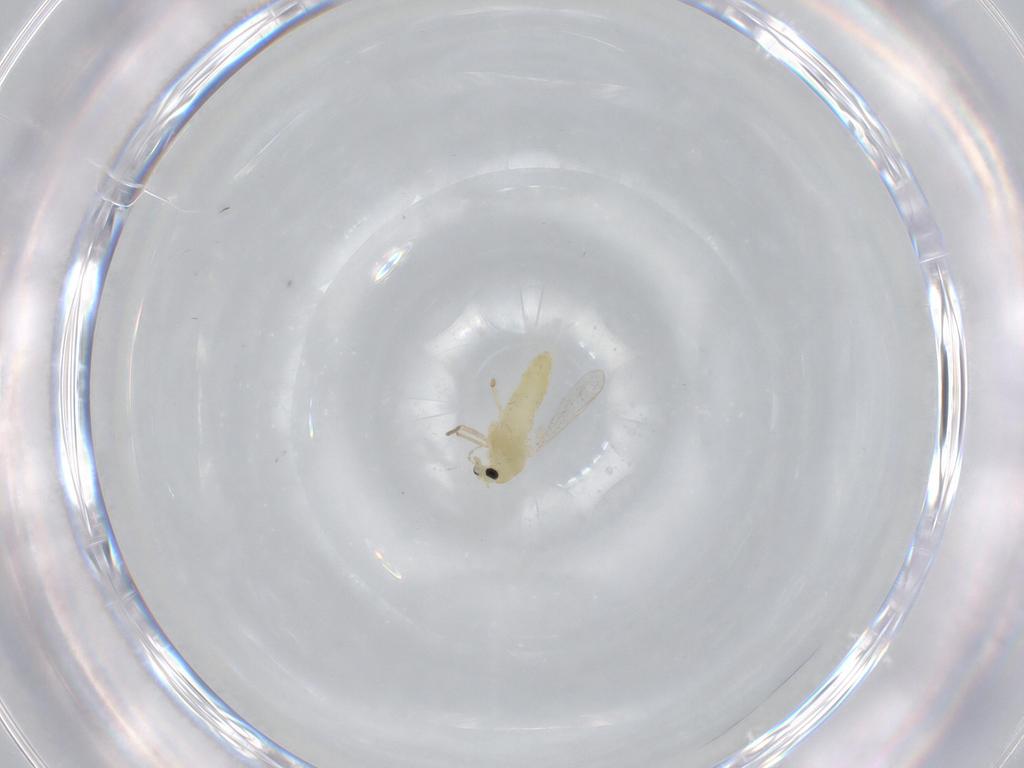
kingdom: Animalia
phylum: Arthropoda
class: Insecta
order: Diptera
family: Chironomidae
